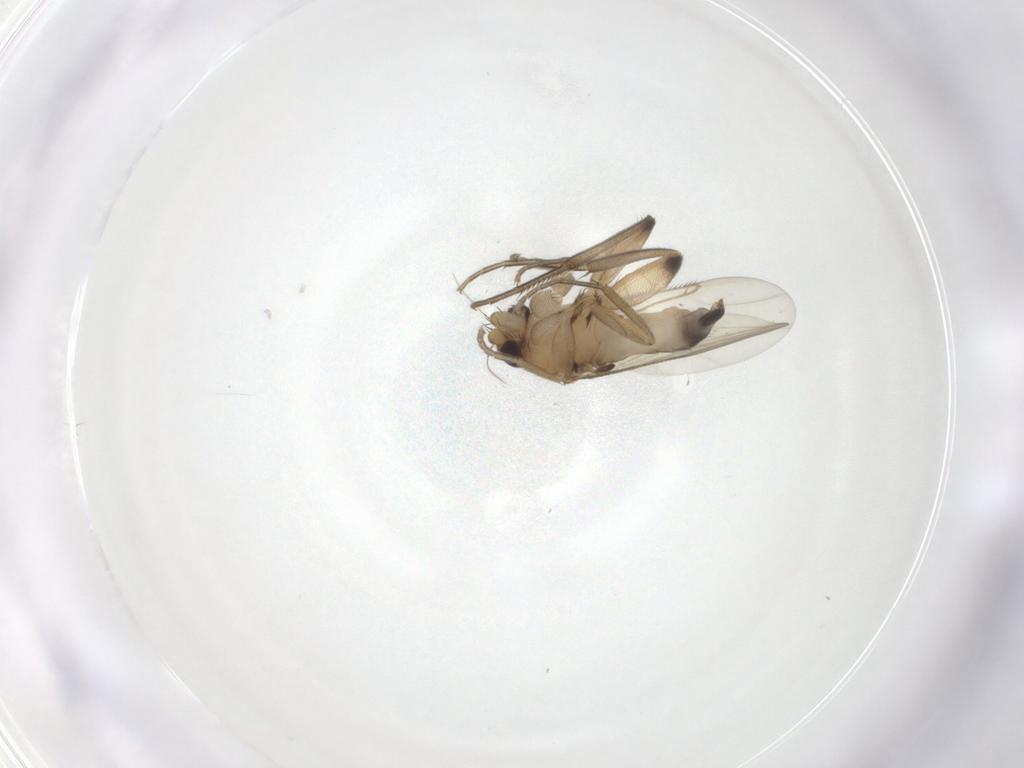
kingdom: Animalia
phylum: Arthropoda
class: Insecta
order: Diptera
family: Phoridae
